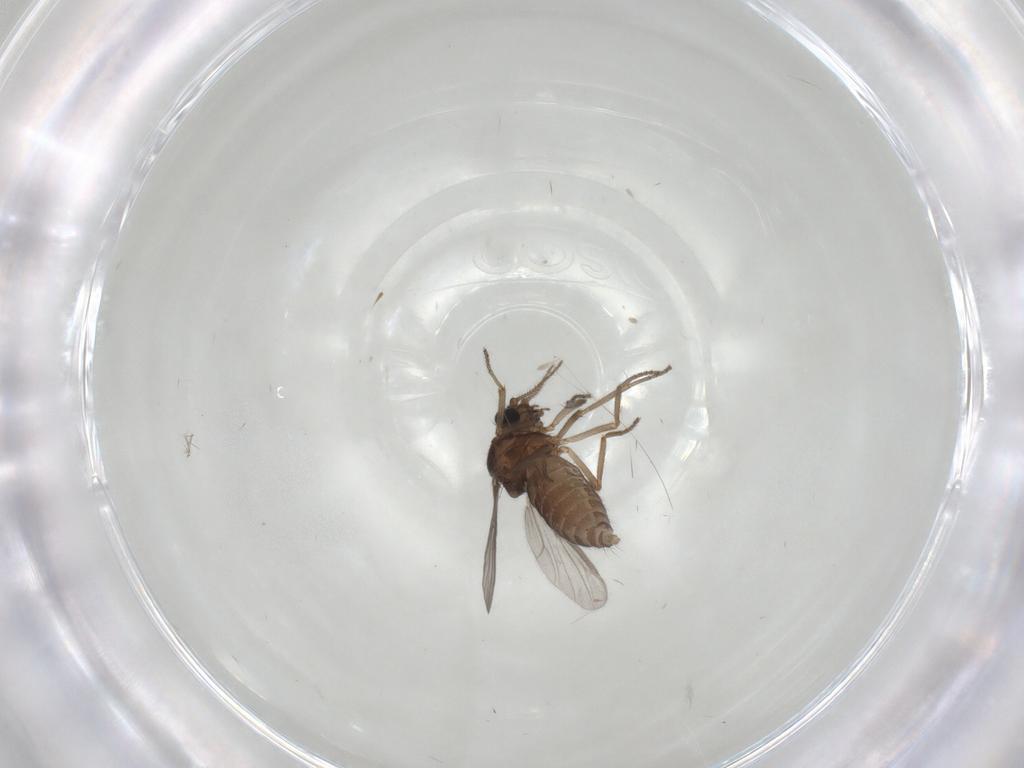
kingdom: Animalia
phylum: Arthropoda
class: Insecta
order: Diptera
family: Ceratopogonidae
